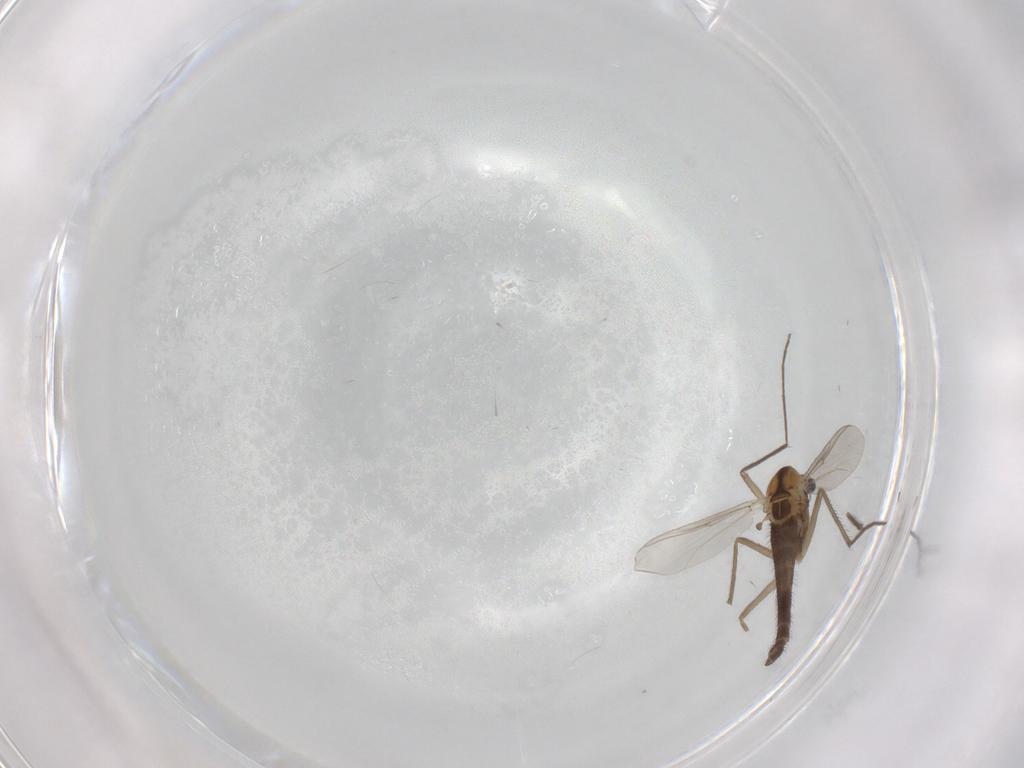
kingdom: Animalia
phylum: Arthropoda
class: Insecta
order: Diptera
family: Chironomidae
